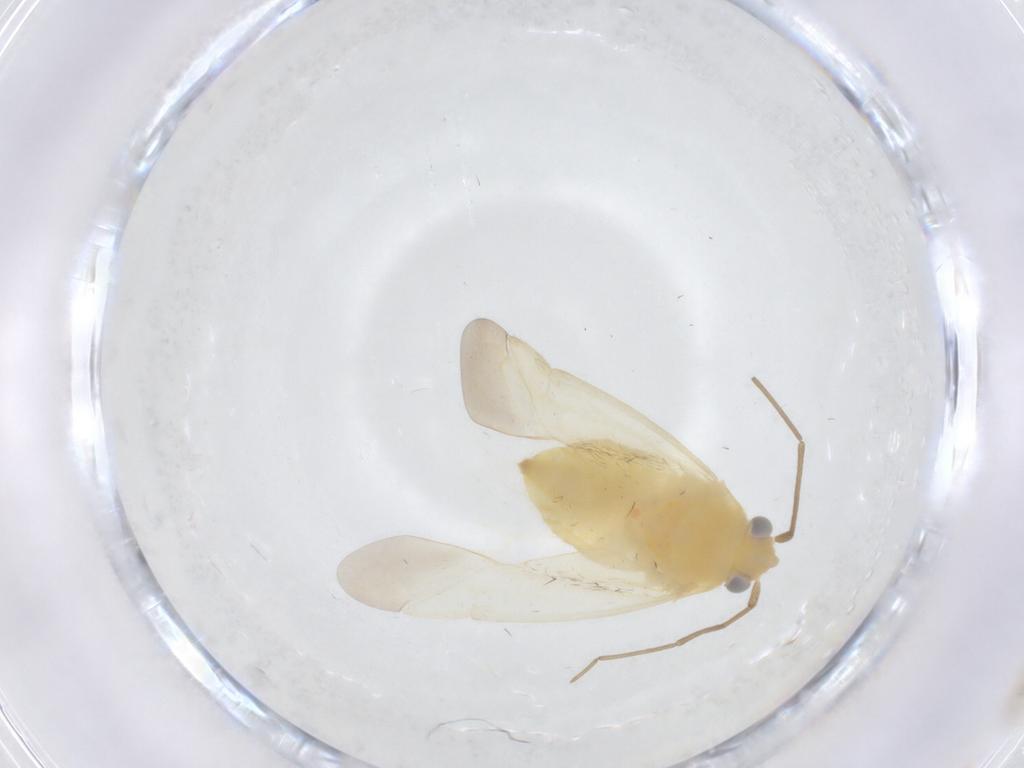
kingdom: Animalia
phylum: Arthropoda
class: Insecta
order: Hemiptera
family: Miridae
